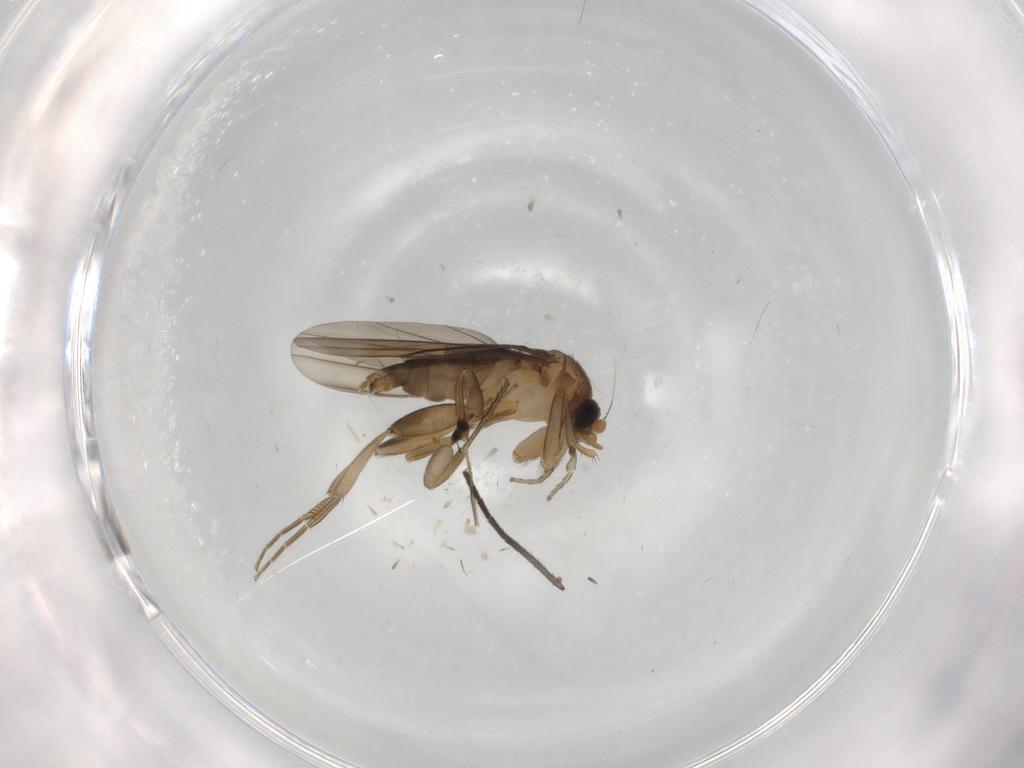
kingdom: Animalia
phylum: Arthropoda
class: Insecta
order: Diptera
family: Phoridae
